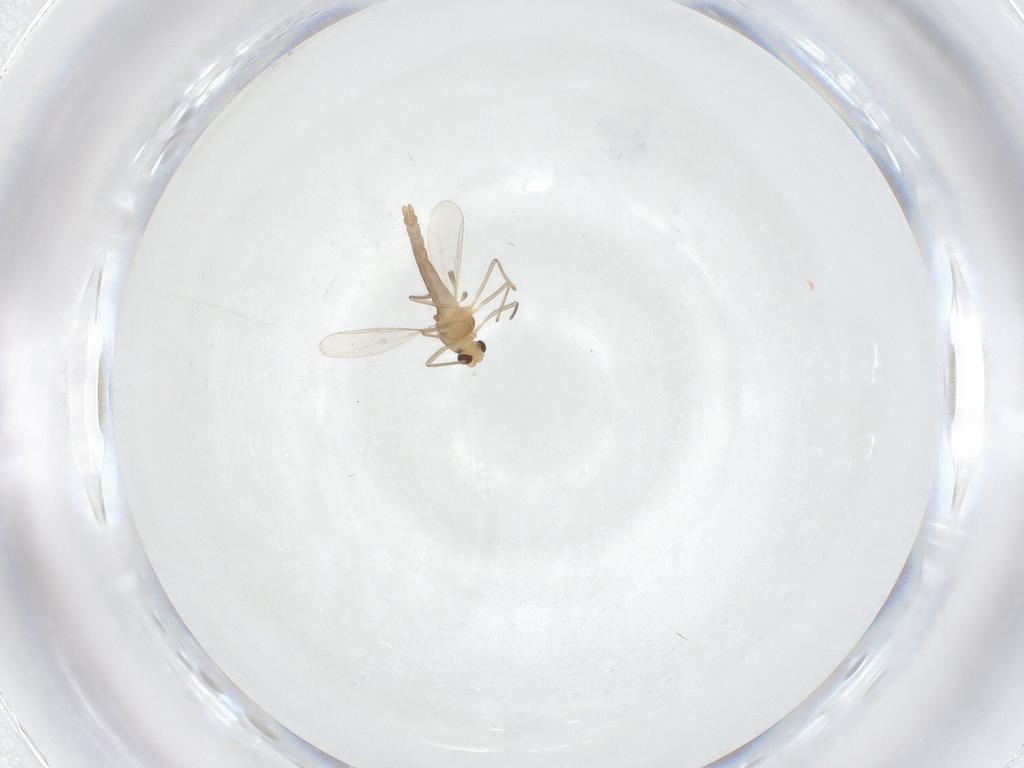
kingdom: Animalia
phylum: Arthropoda
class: Insecta
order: Diptera
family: Chironomidae
